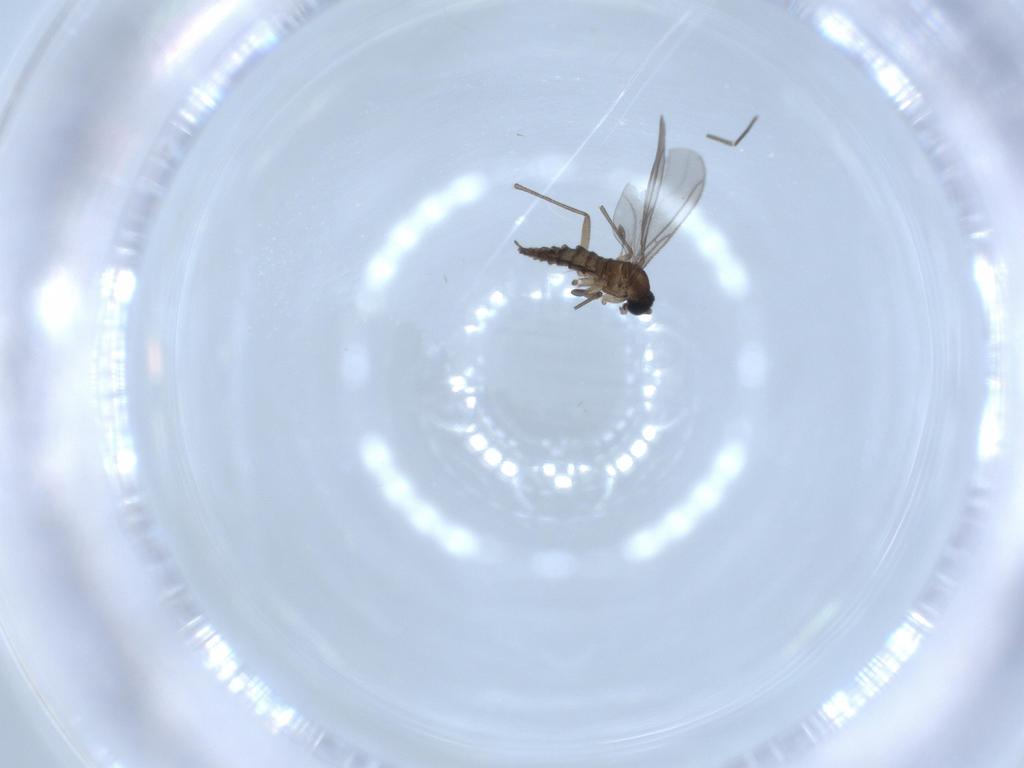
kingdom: Animalia
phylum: Arthropoda
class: Insecta
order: Diptera
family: Sciaridae
